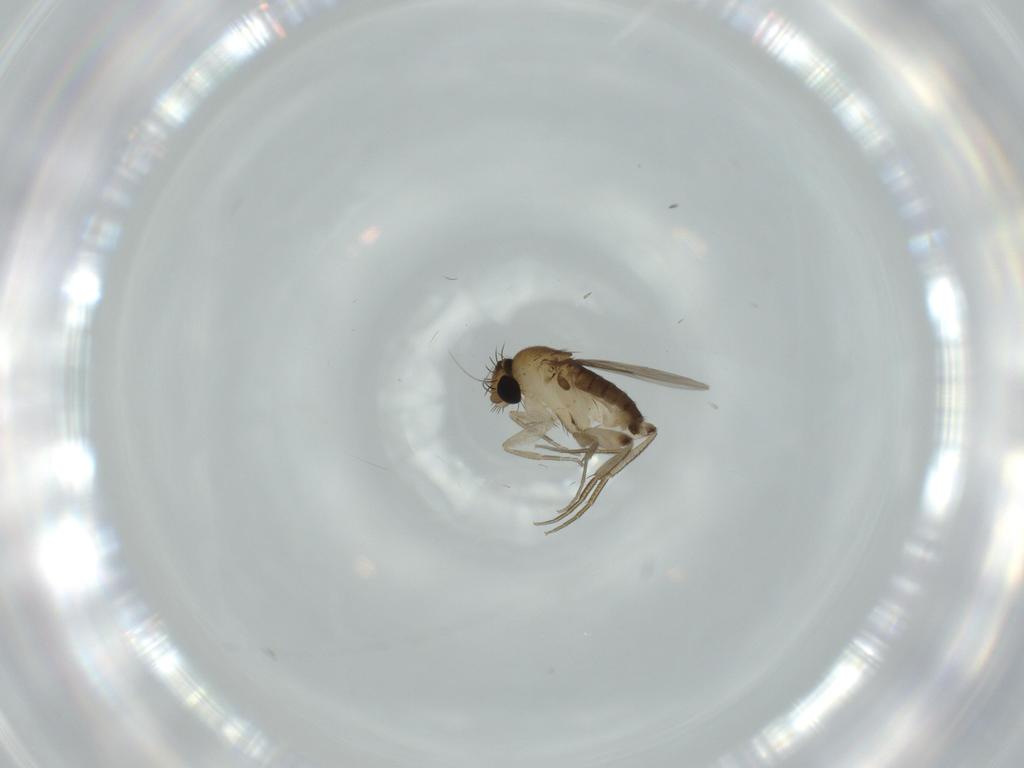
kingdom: Animalia
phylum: Arthropoda
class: Insecta
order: Diptera
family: Phoridae
